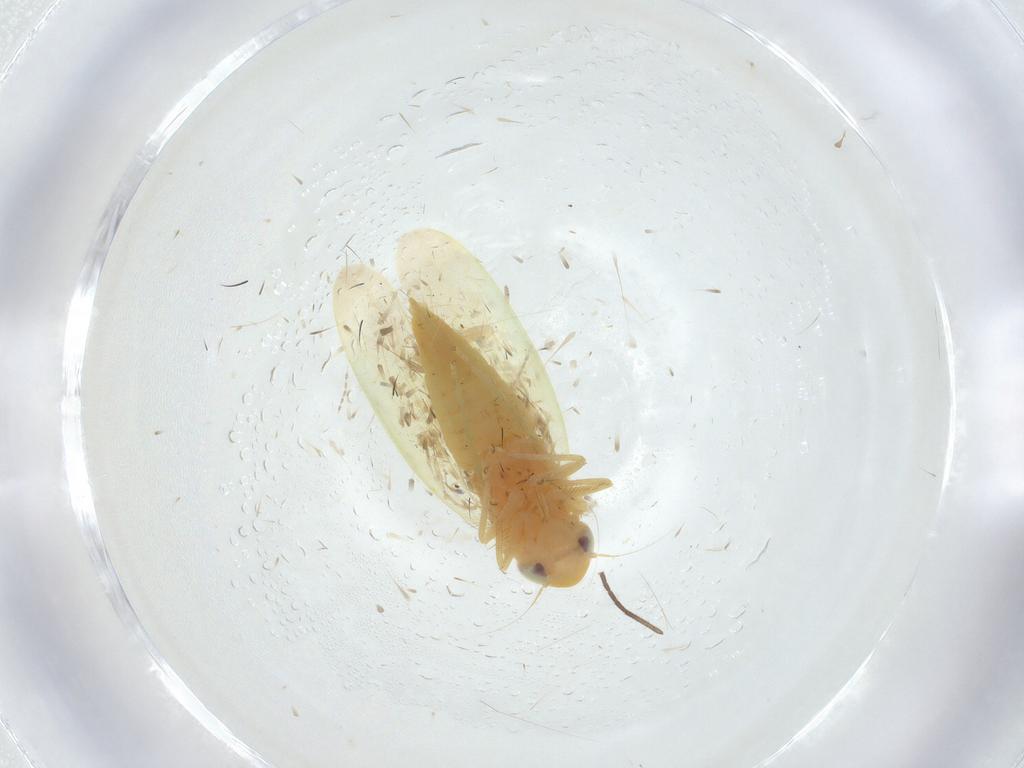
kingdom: Animalia
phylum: Arthropoda
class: Insecta
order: Hemiptera
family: Cicadellidae
